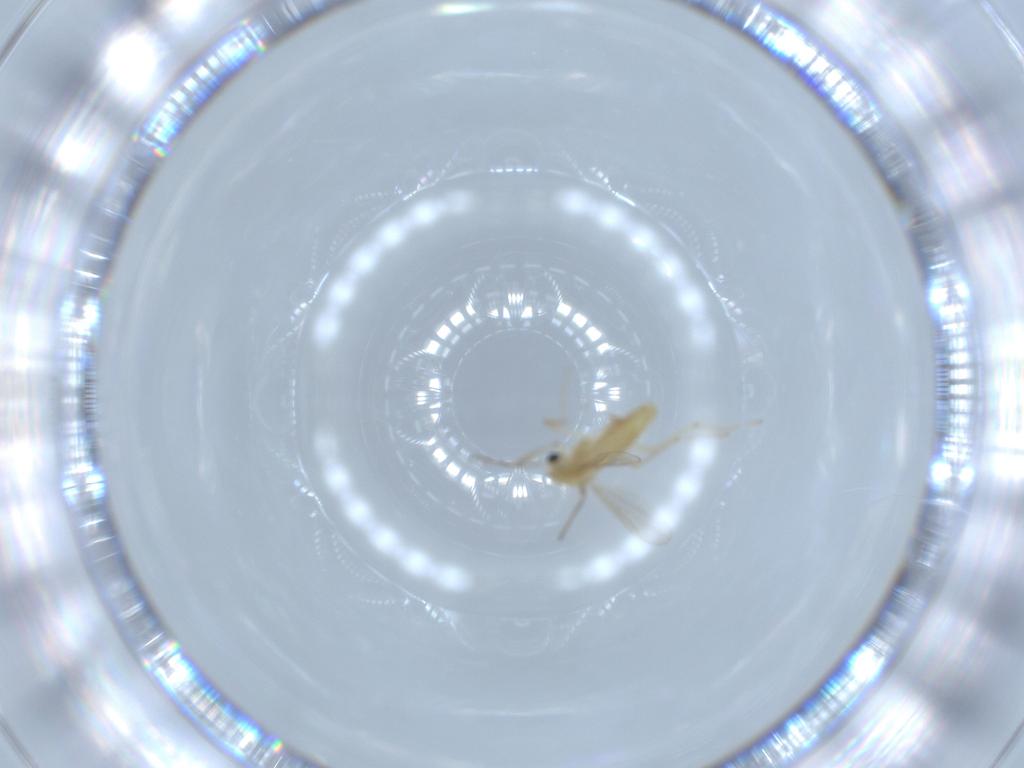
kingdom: Animalia
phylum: Arthropoda
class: Insecta
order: Diptera
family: Chironomidae
